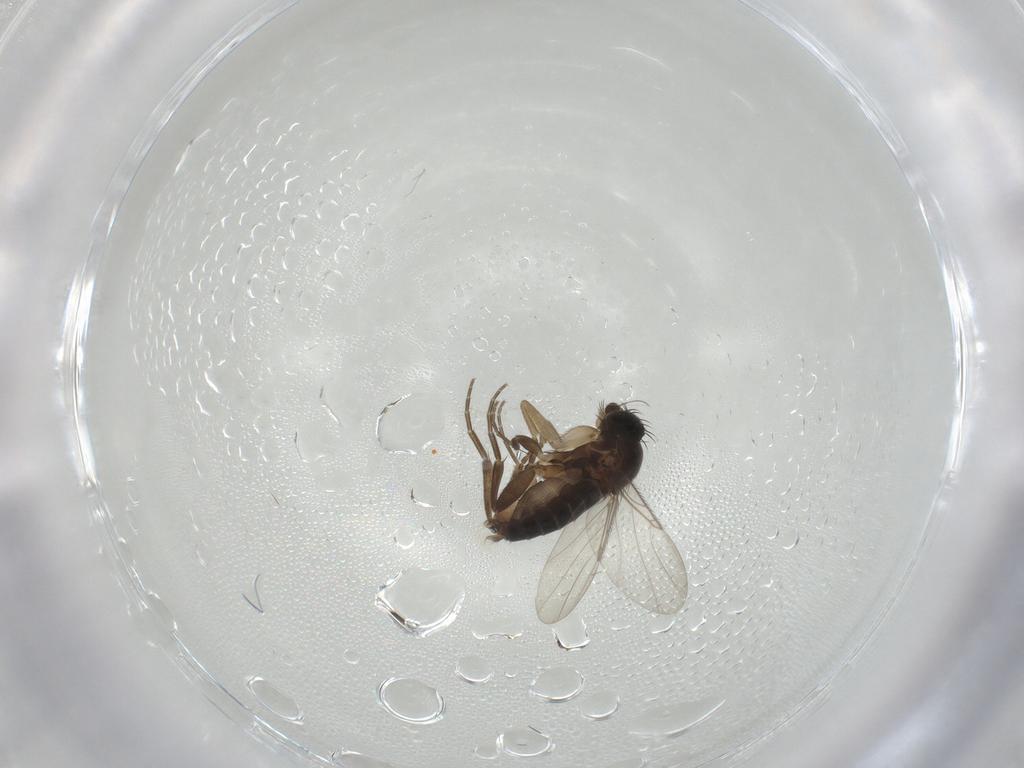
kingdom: Animalia
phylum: Arthropoda
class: Insecta
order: Diptera
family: Phoridae
